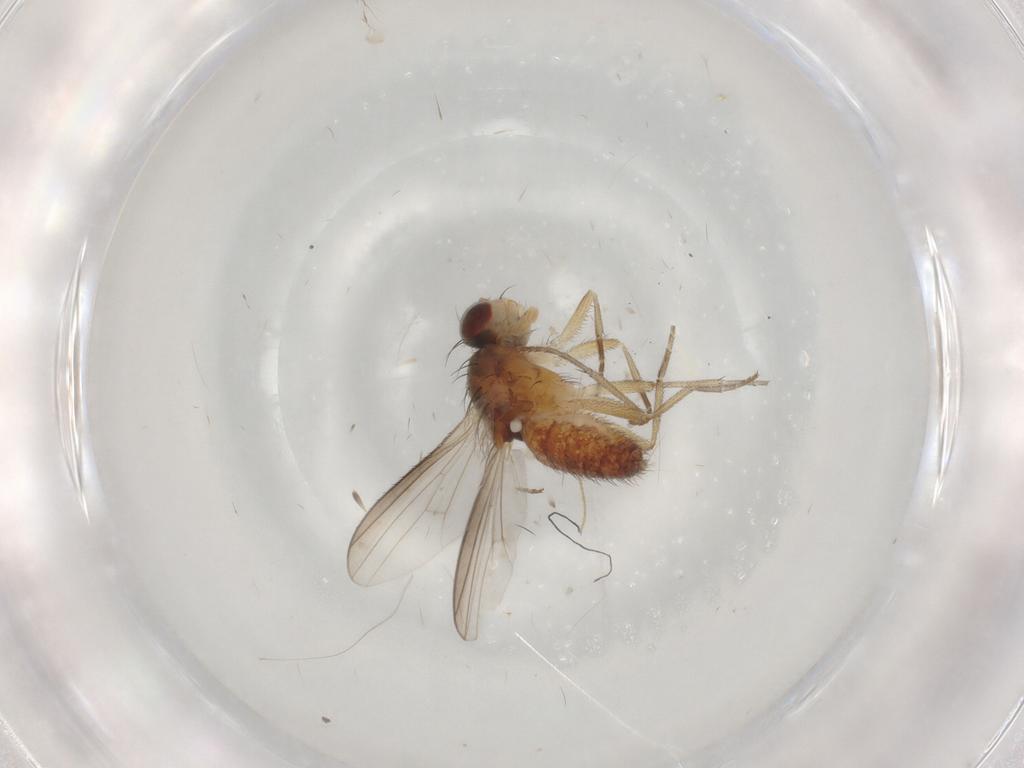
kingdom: Animalia
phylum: Arthropoda
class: Insecta
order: Diptera
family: Heleomyzidae
